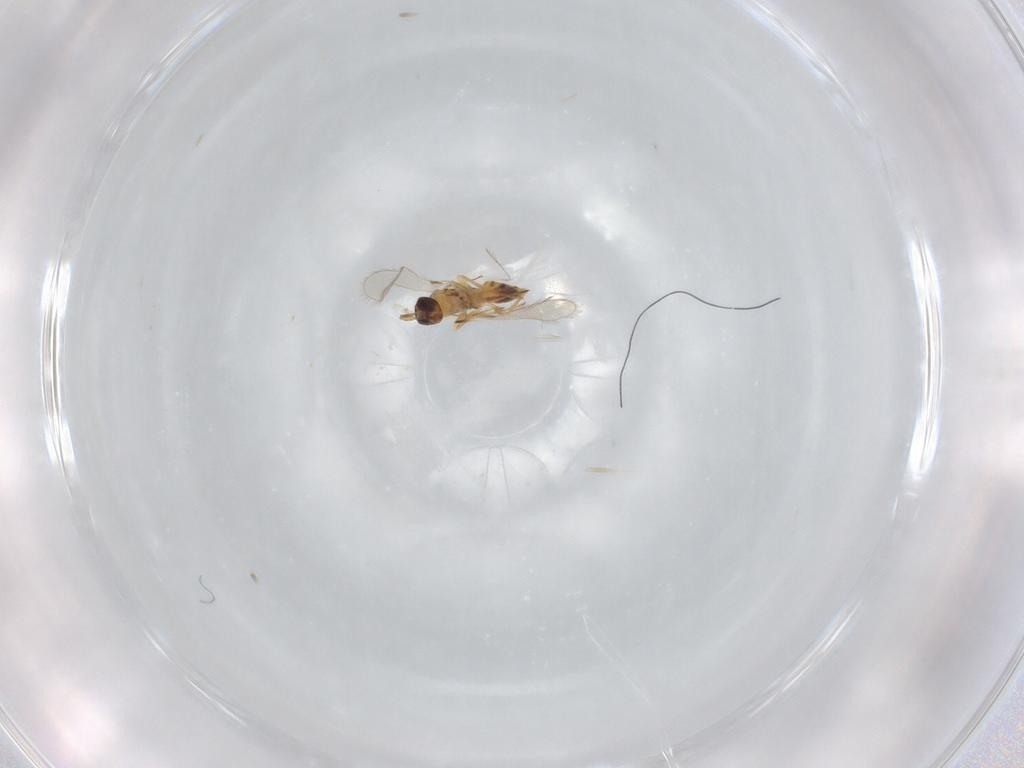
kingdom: Animalia
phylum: Arthropoda
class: Insecta
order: Hymenoptera
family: Mymaridae
